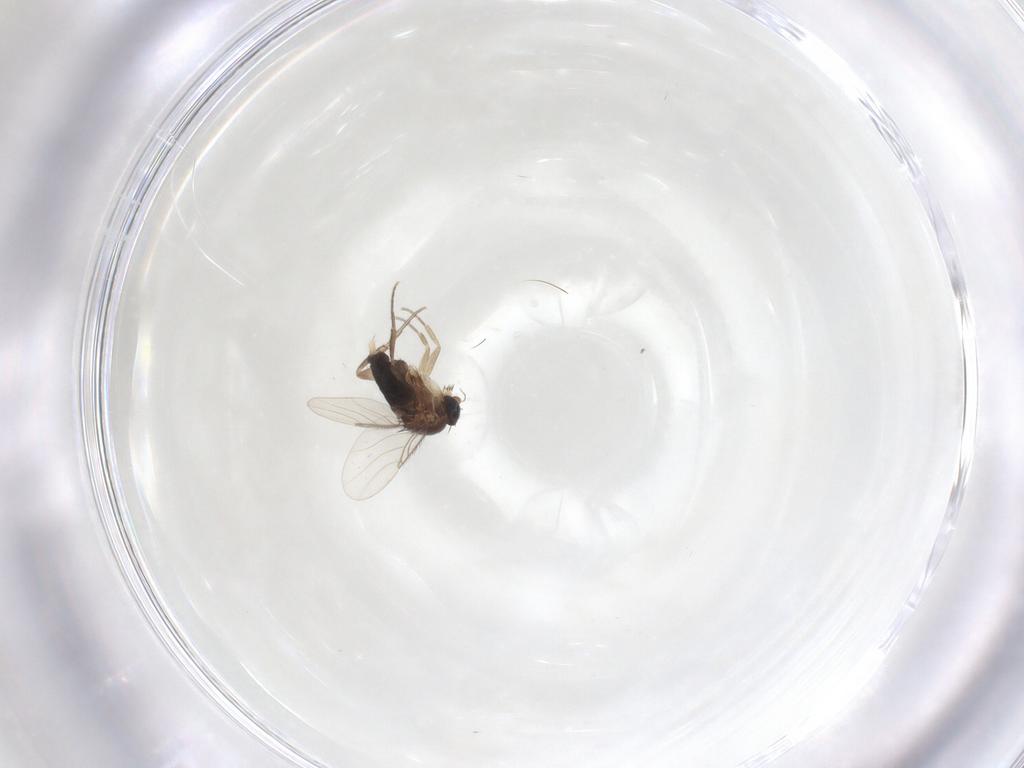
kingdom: Animalia
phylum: Arthropoda
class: Insecta
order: Diptera
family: Phoridae
